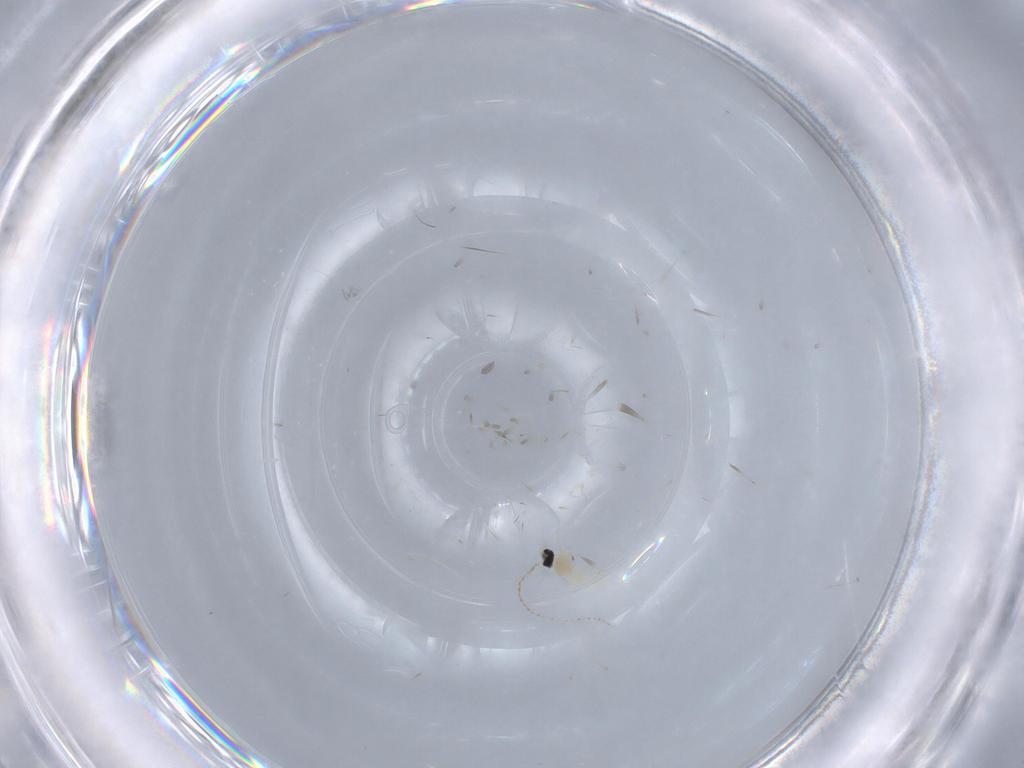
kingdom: Animalia
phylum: Arthropoda
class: Insecta
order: Diptera
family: Cecidomyiidae
